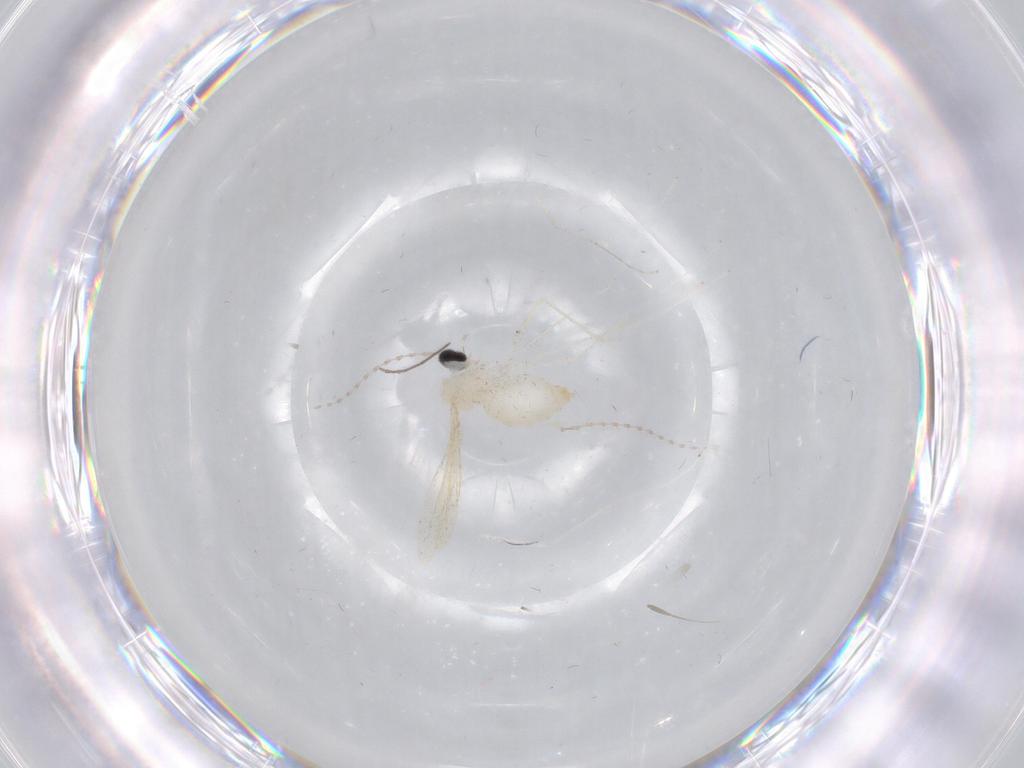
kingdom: Animalia
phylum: Arthropoda
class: Insecta
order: Diptera
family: Cecidomyiidae
